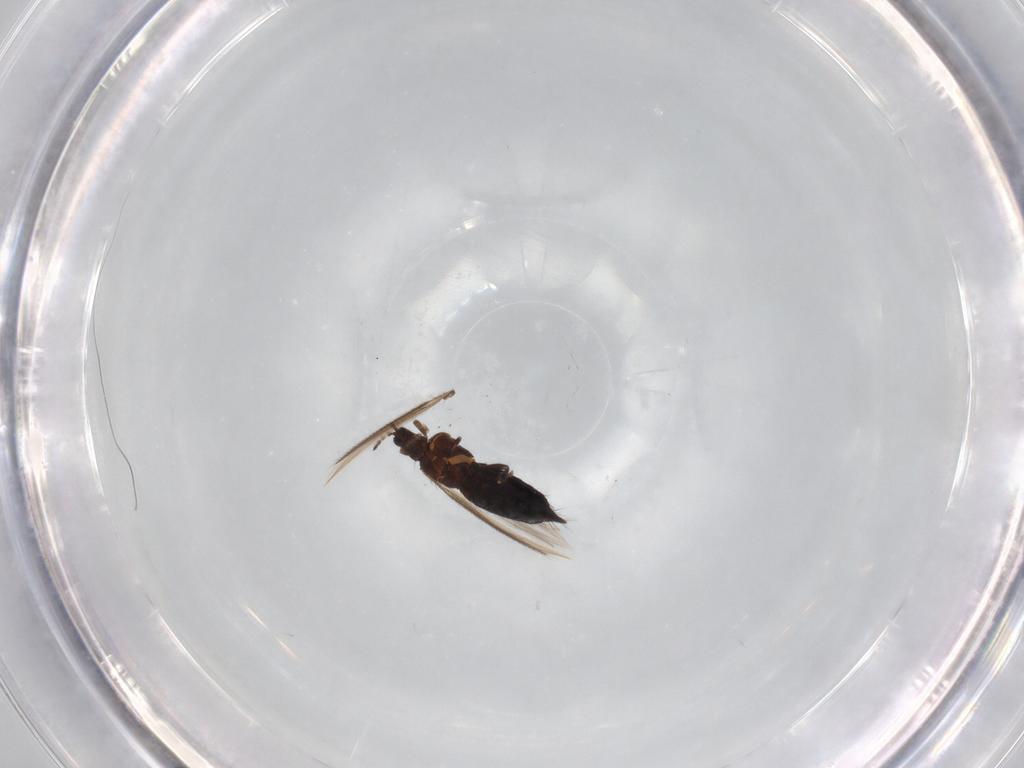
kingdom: Animalia
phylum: Arthropoda
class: Insecta
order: Thysanoptera
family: Thripidae
